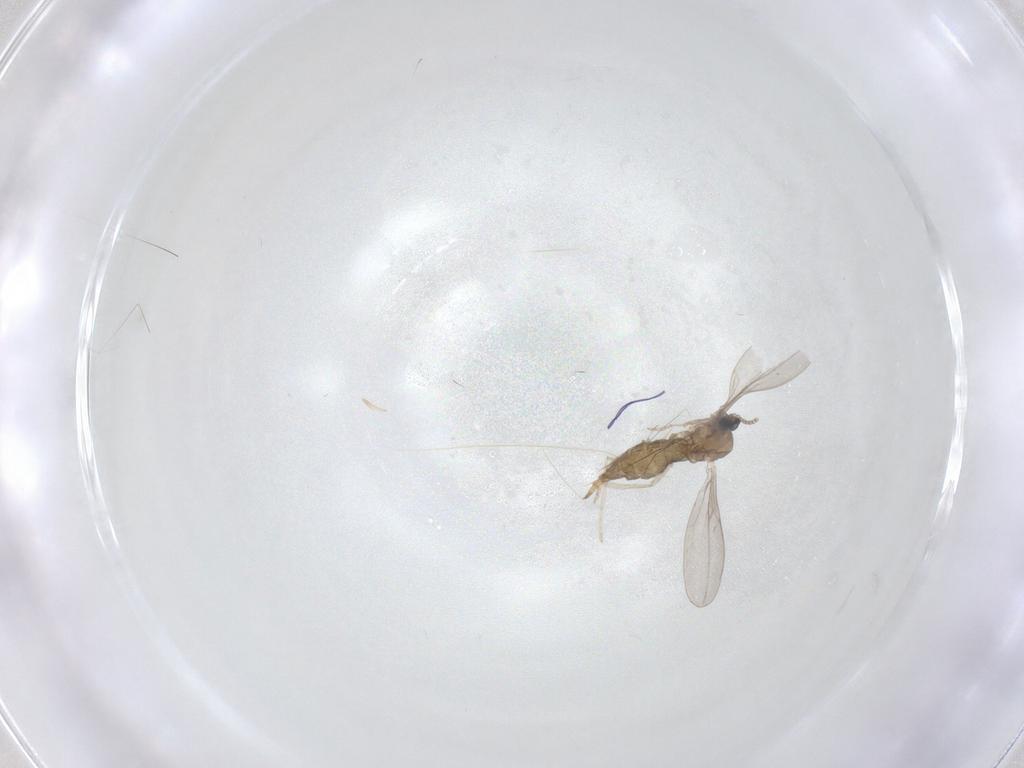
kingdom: Animalia
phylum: Arthropoda
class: Insecta
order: Diptera
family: Cecidomyiidae
